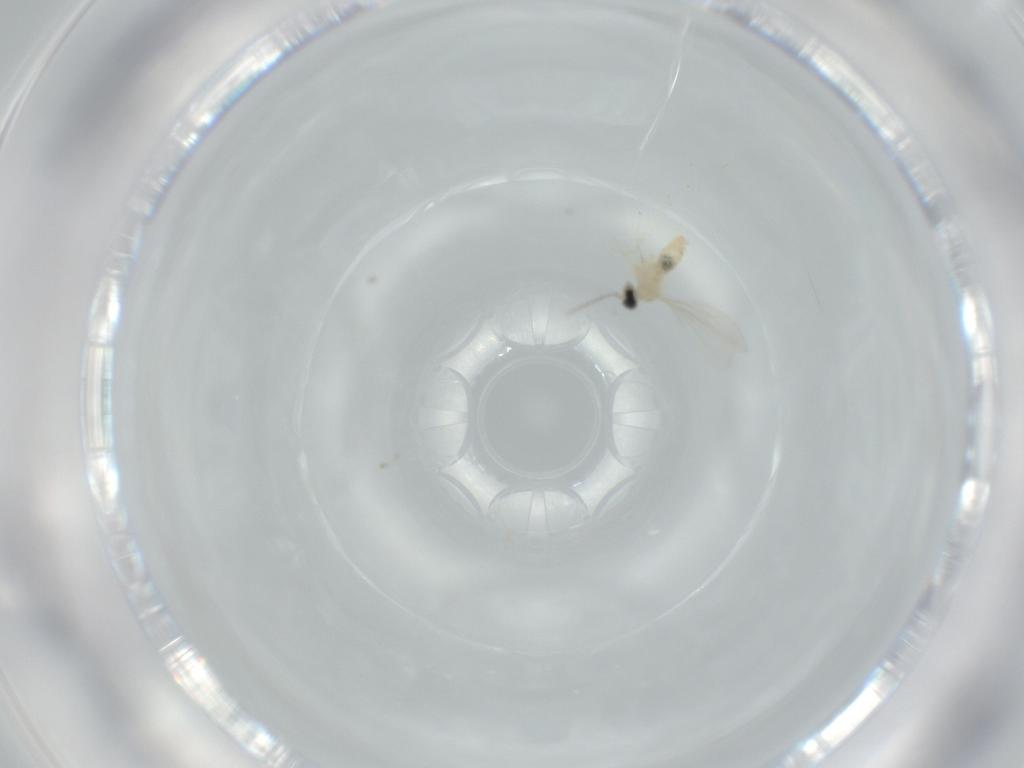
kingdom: Animalia
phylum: Arthropoda
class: Insecta
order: Diptera
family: Cecidomyiidae
